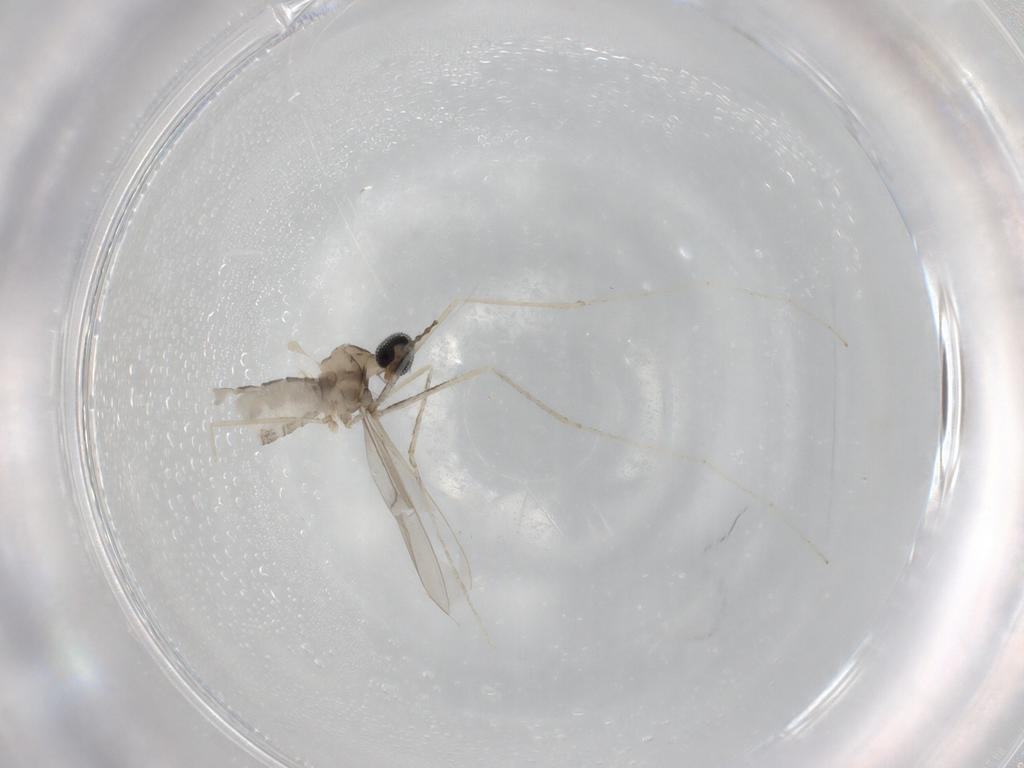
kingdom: Animalia
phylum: Arthropoda
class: Insecta
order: Diptera
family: Cecidomyiidae
